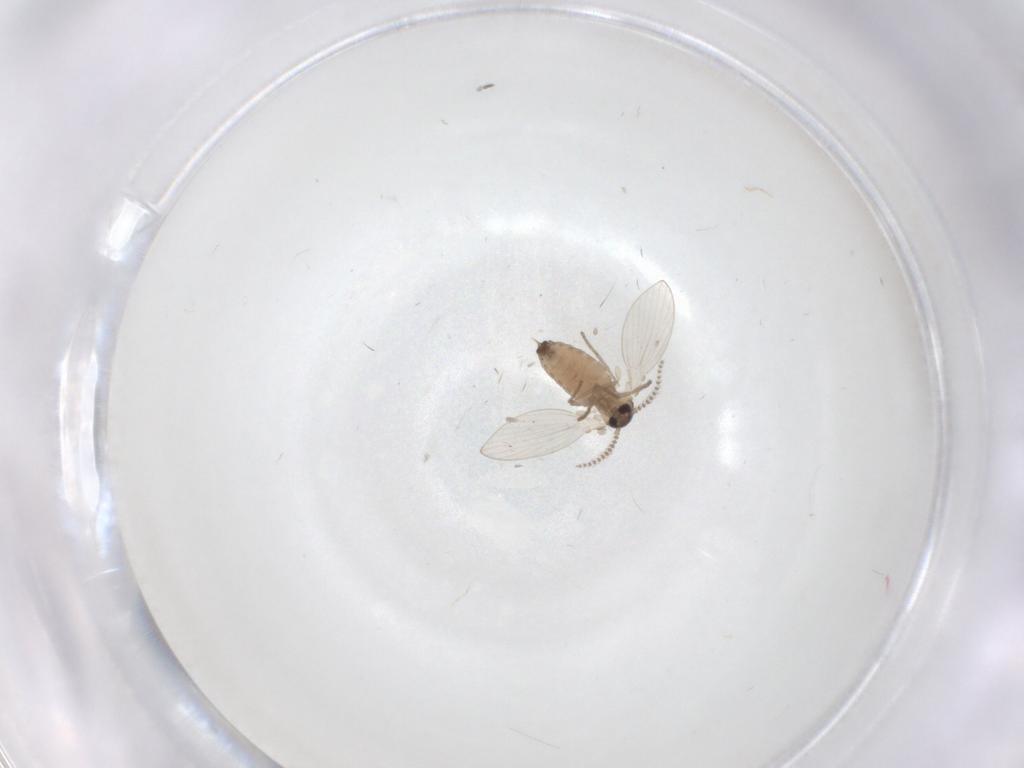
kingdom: Animalia
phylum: Arthropoda
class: Insecta
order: Diptera
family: Psychodidae
